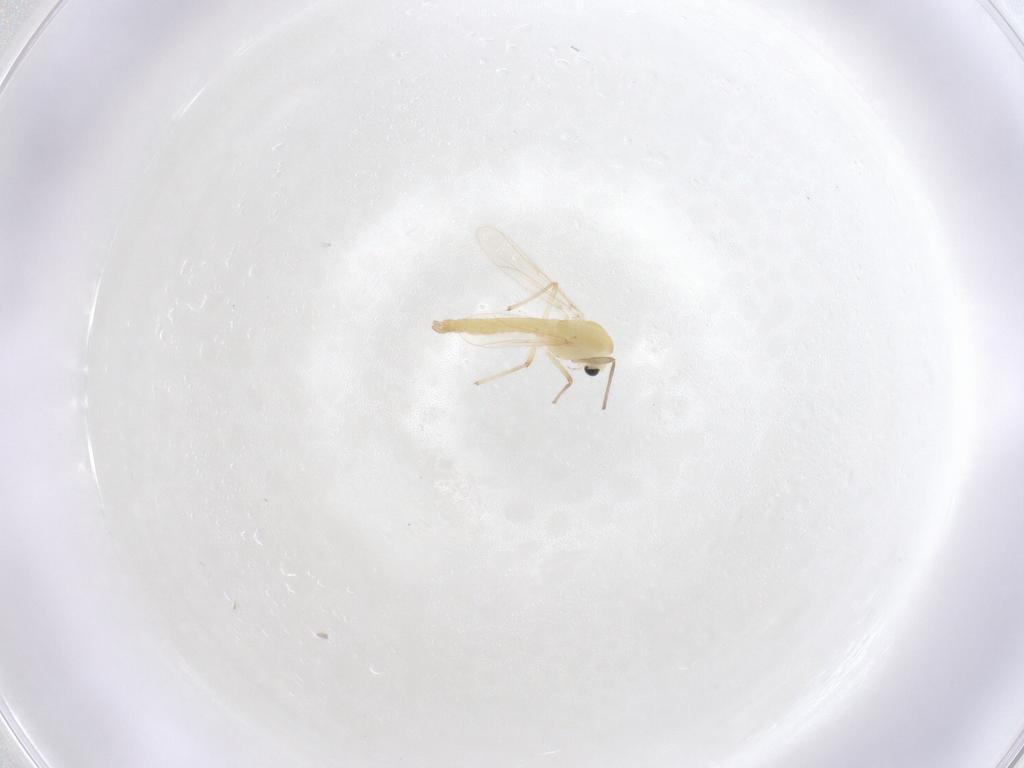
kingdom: Animalia
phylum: Arthropoda
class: Insecta
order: Diptera
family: Chironomidae
